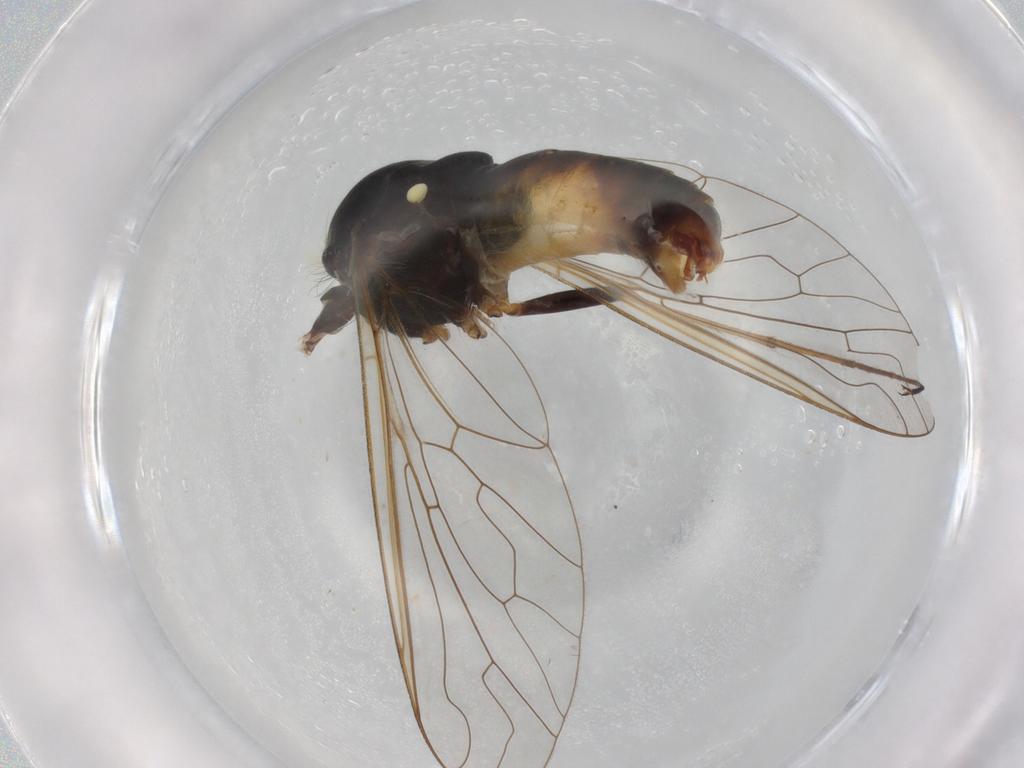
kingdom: Animalia
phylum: Arthropoda
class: Insecta
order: Diptera
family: Bombyliidae
